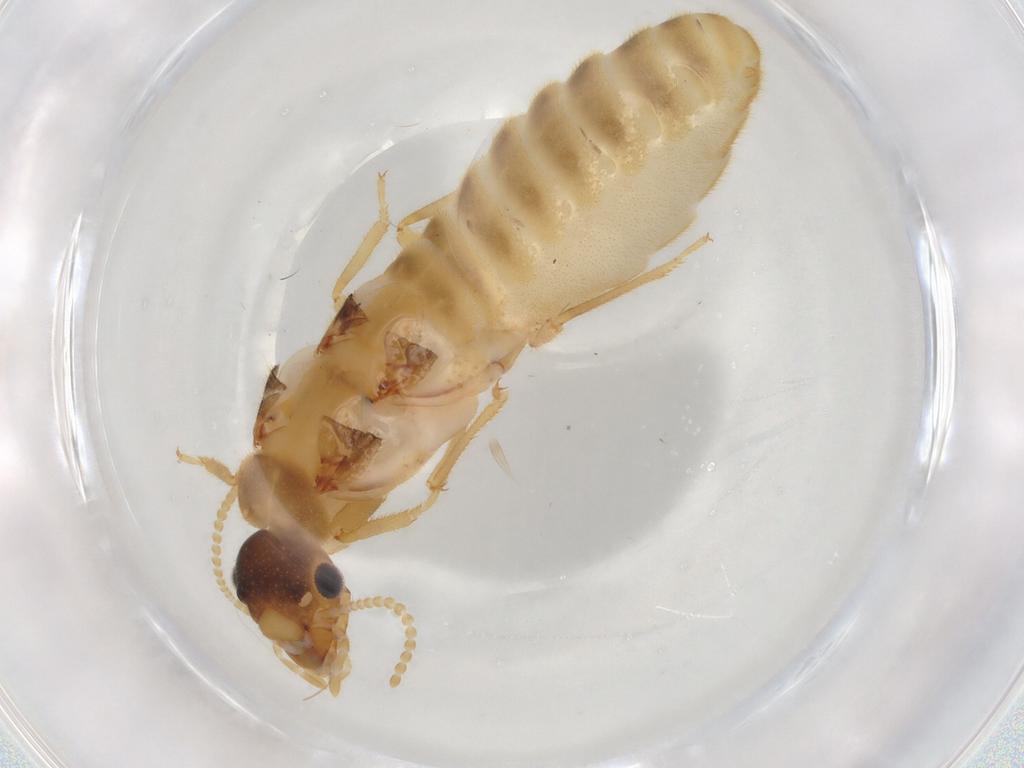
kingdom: Animalia
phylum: Arthropoda
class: Insecta
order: Blattodea
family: Termitidae
